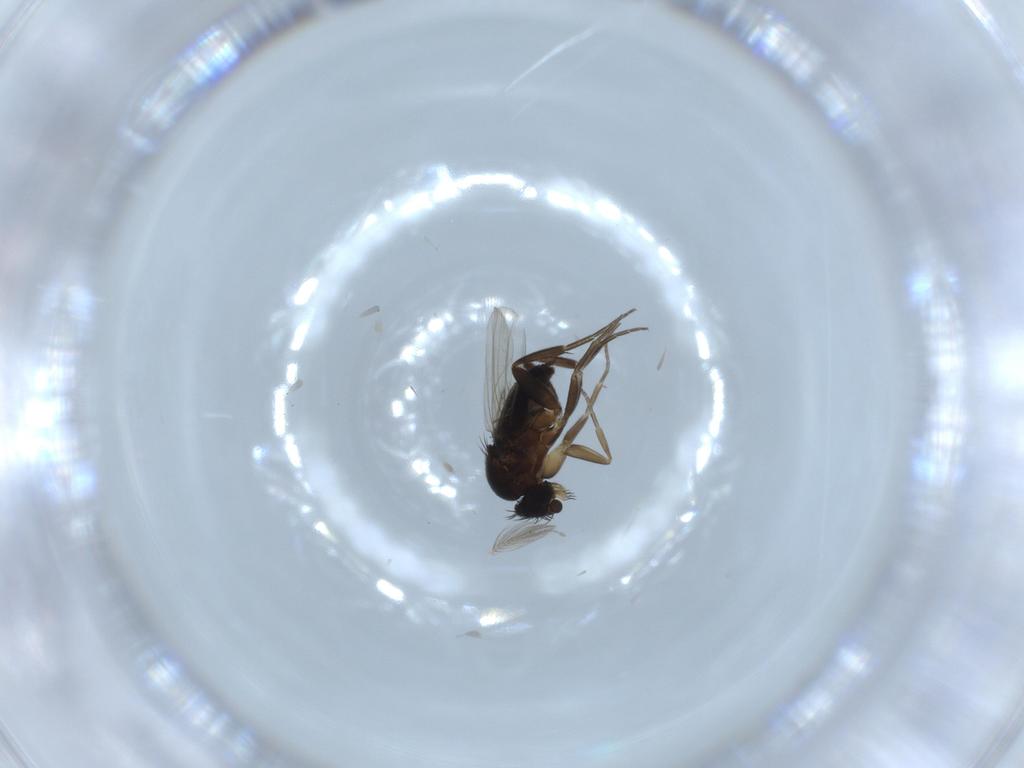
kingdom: Animalia
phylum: Arthropoda
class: Insecta
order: Diptera
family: Phoridae
